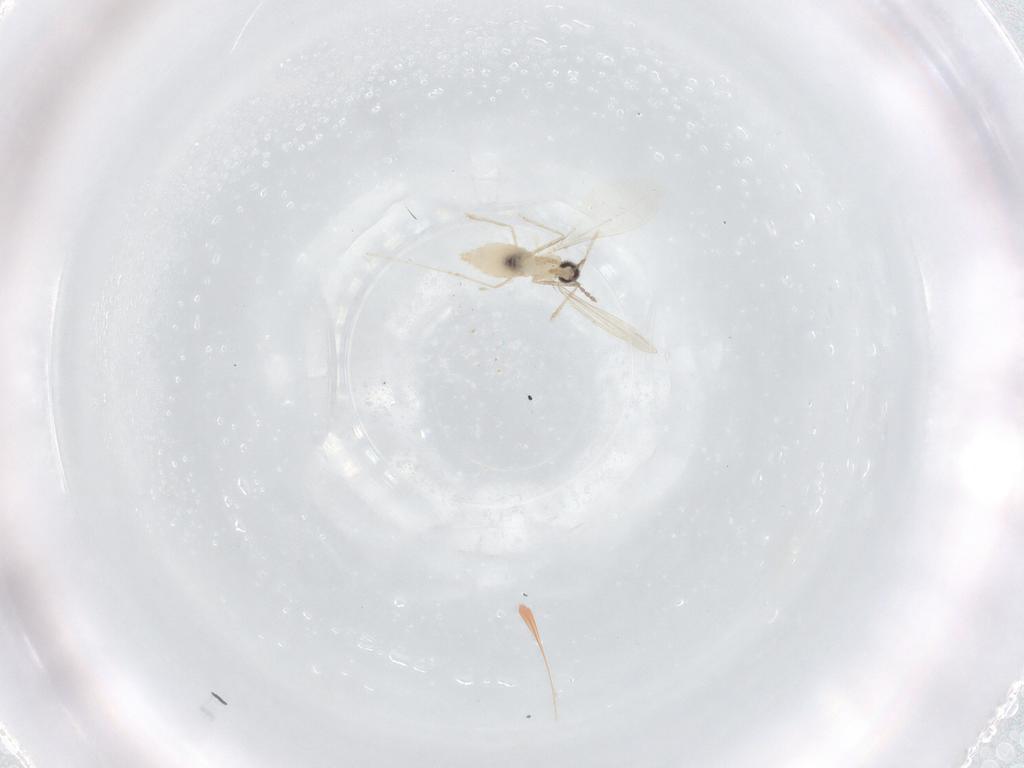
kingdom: Animalia
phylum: Arthropoda
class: Insecta
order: Diptera
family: Cecidomyiidae
